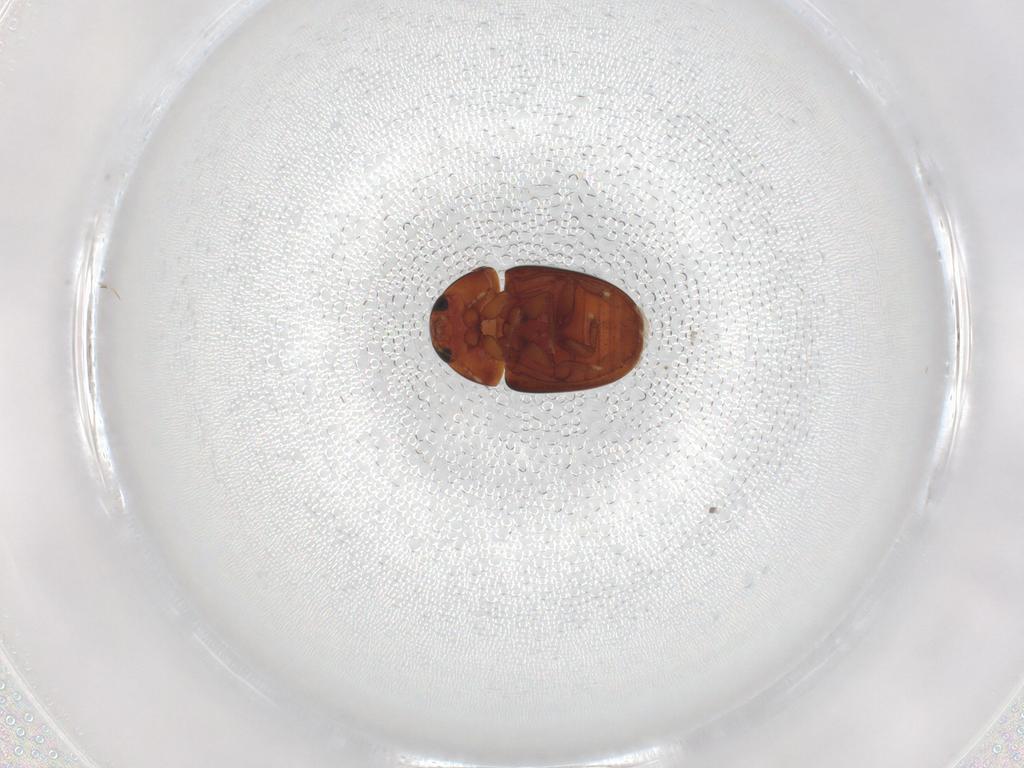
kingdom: Animalia
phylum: Arthropoda
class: Insecta
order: Coleoptera
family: Phalacridae
